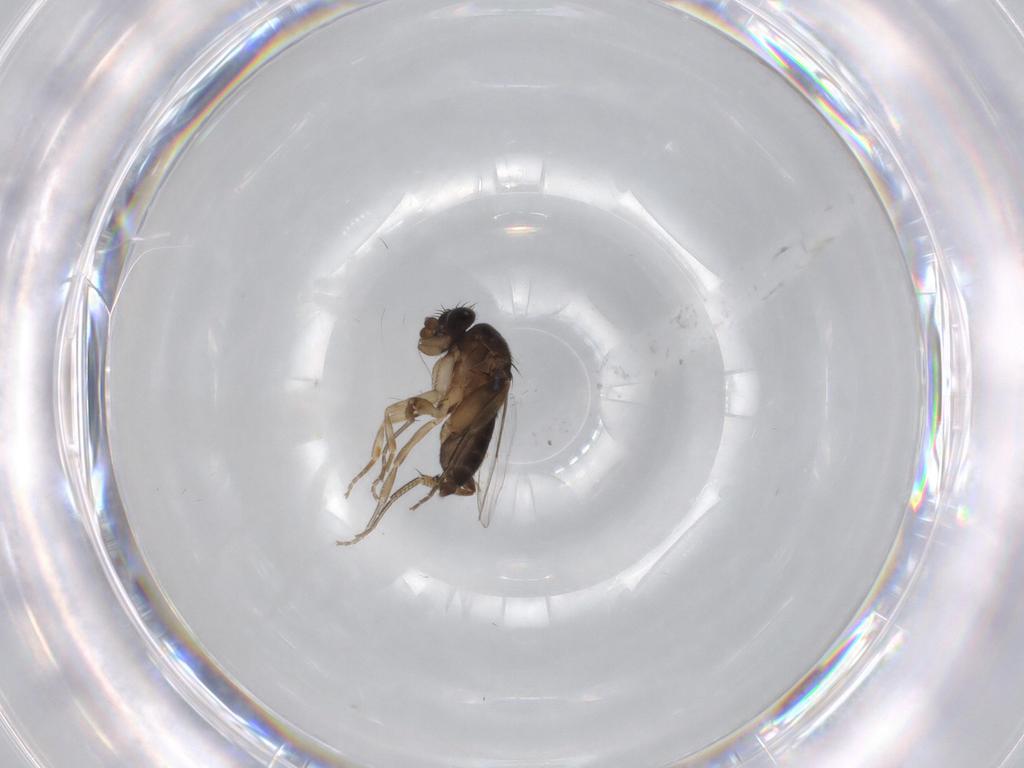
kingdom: Animalia
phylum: Arthropoda
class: Insecta
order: Diptera
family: Phoridae
